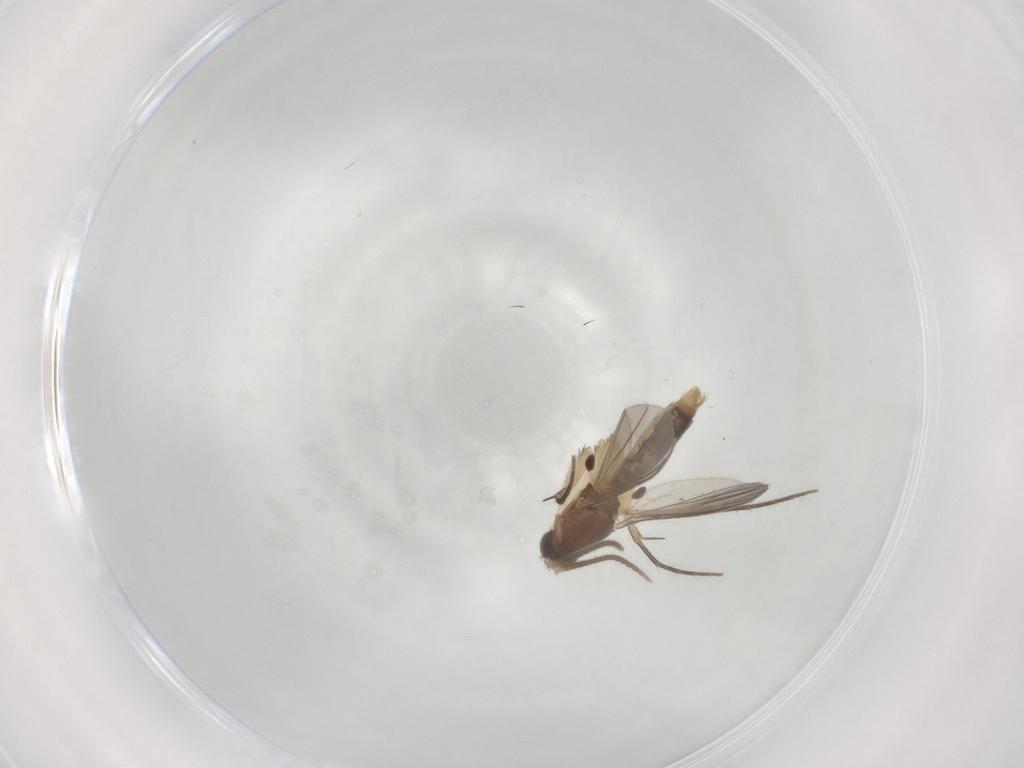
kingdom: Animalia
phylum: Arthropoda
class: Insecta
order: Diptera
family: Mycetophilidae
